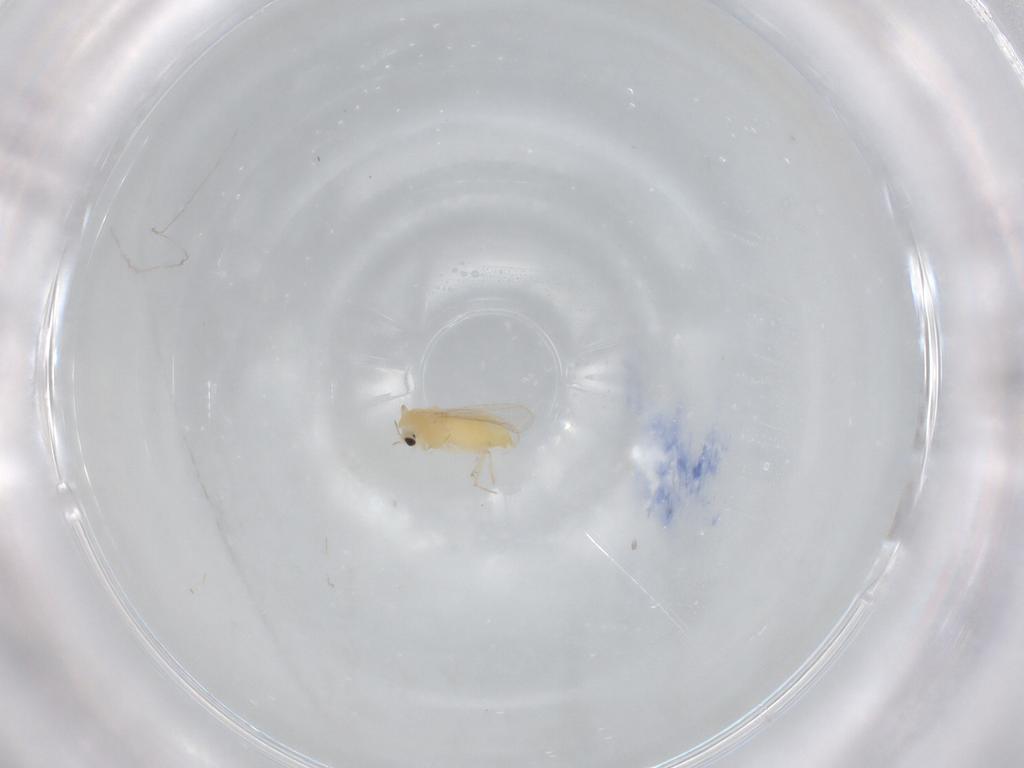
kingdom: Animalia
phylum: Arthropoda
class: Insecta
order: Diptera
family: Chironomidae
